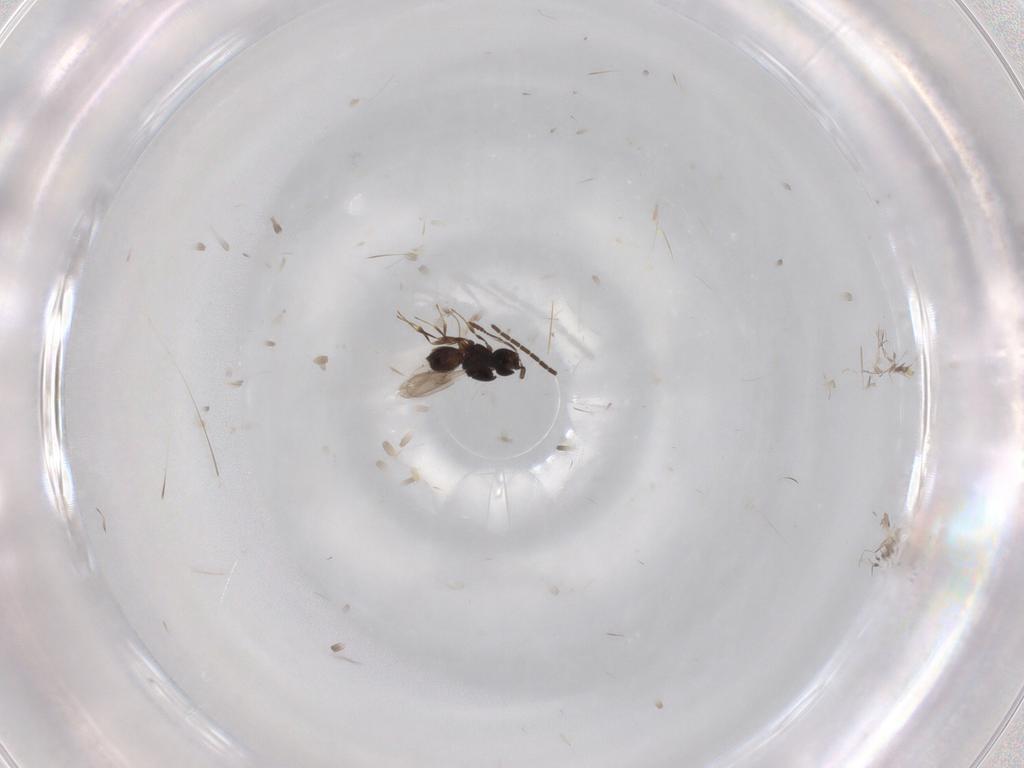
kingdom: Animalia
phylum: Arthropoda
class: Insecta
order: Hymenoptera
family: Scelionidae
